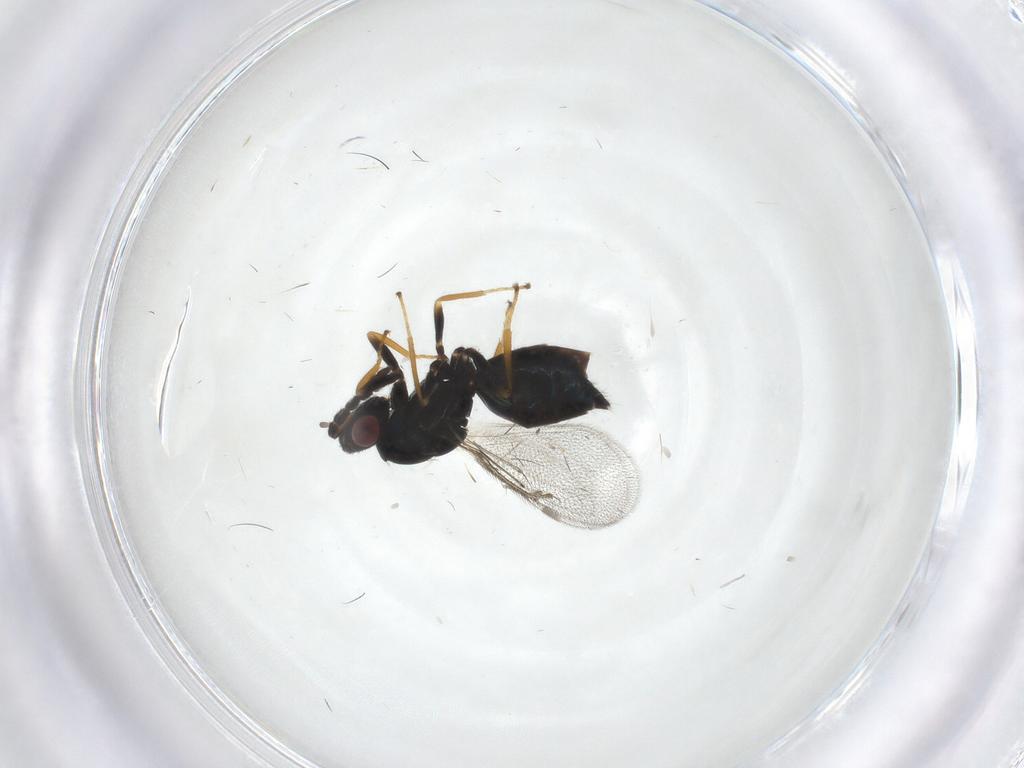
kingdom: Animalia
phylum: Arthropoda
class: Insecta
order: Hymenoptera
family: Eulophidae
